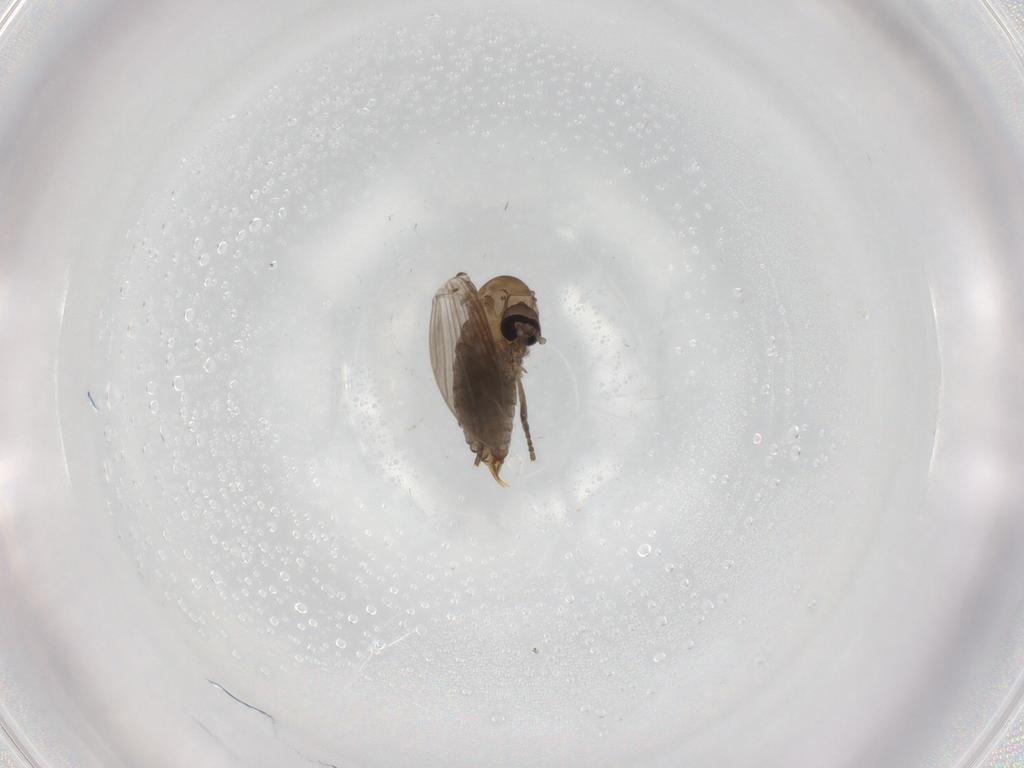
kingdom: Animalia
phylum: Arthropoda
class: Insecta
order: Diptera
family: Psychodidae
